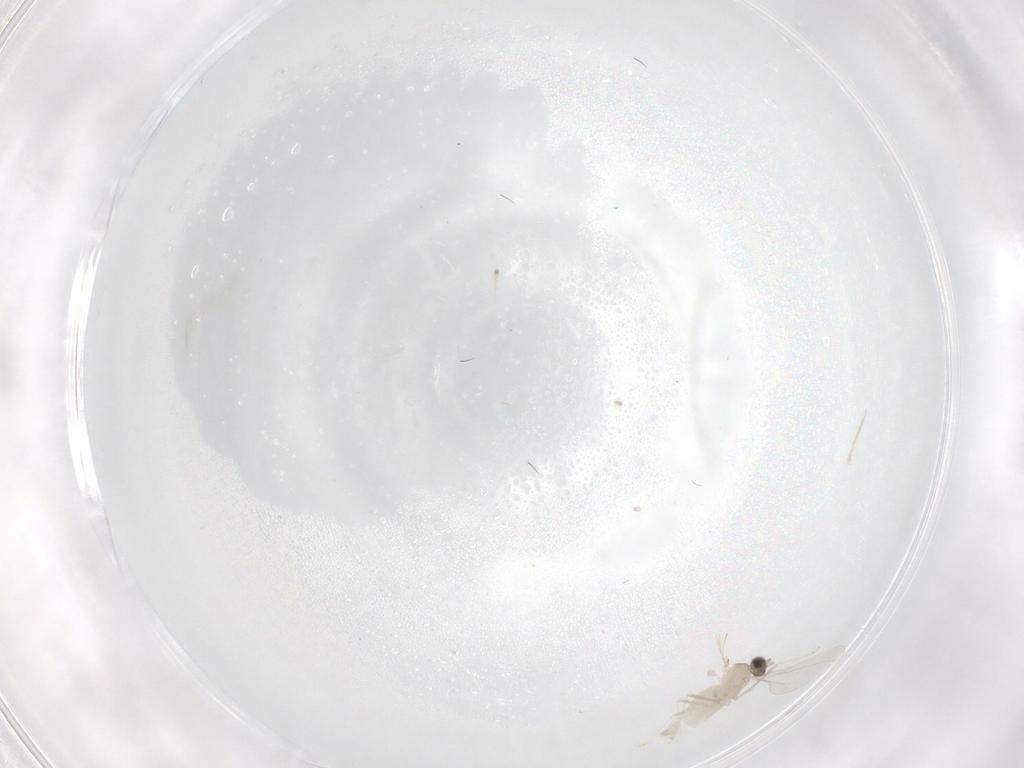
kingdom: Animalia
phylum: Arthropoda
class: Insecta
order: Diptera
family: Cecidomyiidae
